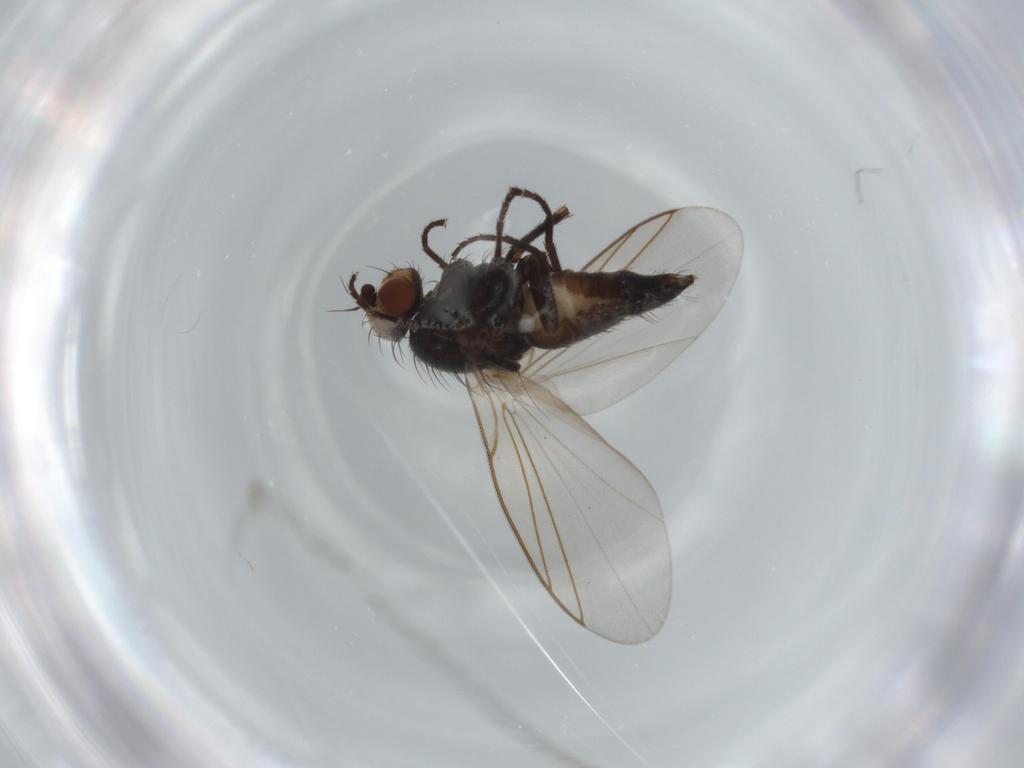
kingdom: Animalia
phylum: Arthropoda
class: Insecta
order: Diptera
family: Agromyzidae
